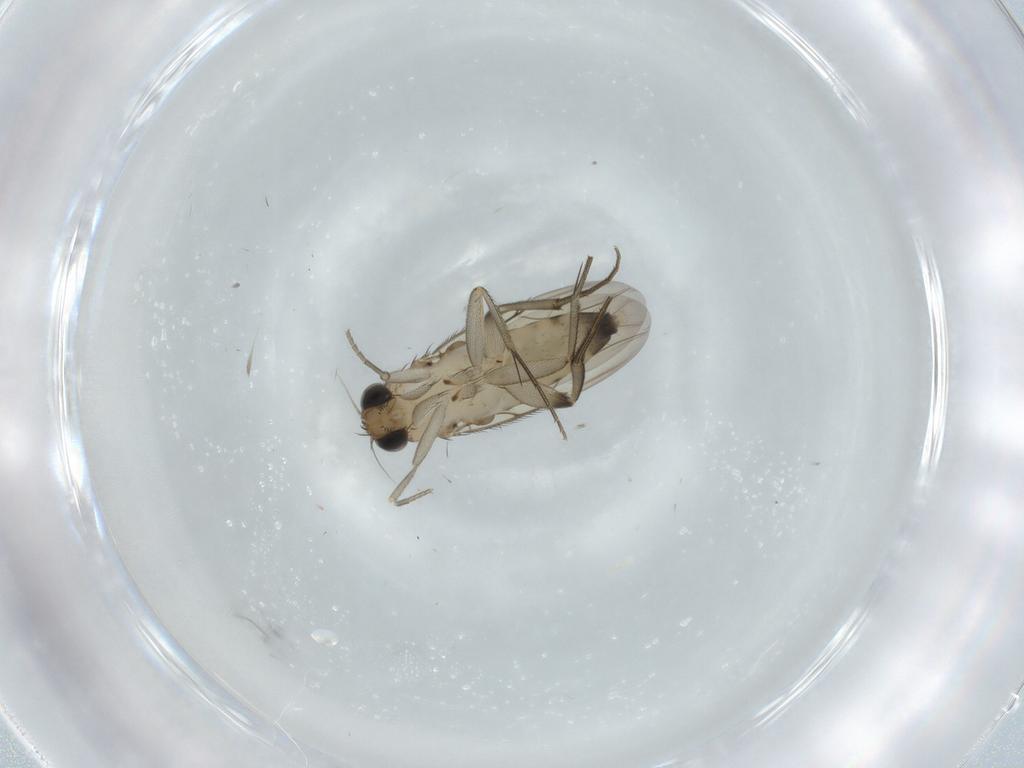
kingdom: Animalia
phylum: Arthropoda
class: Insecta
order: Diptera
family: Phoridae
